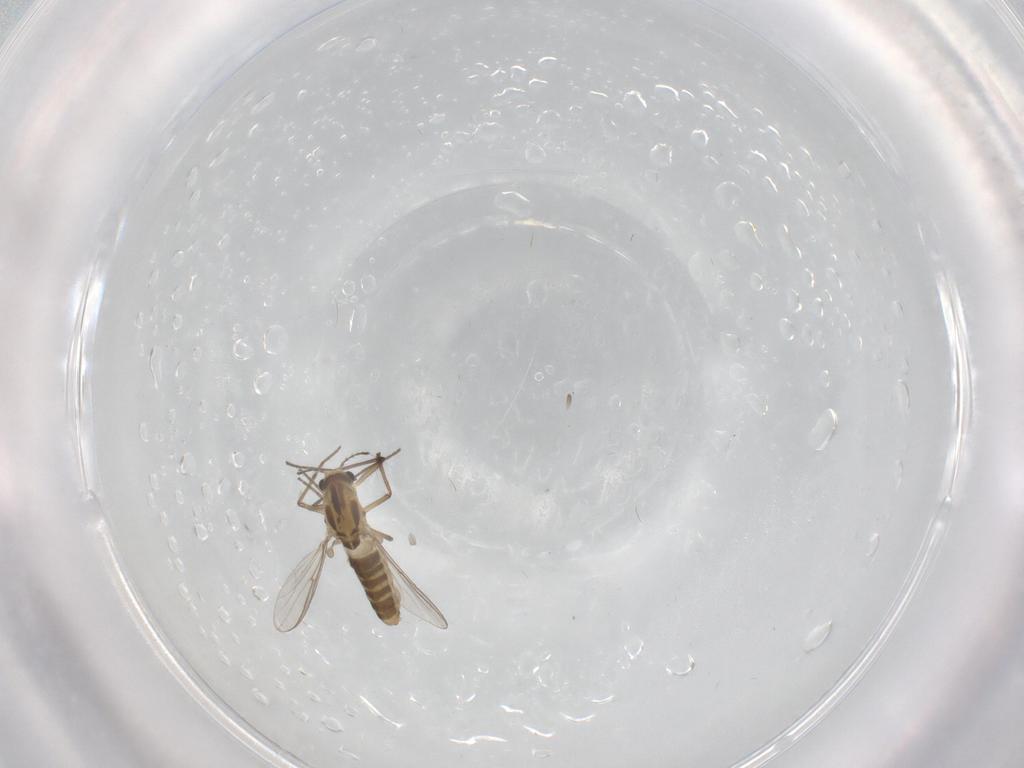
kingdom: Animalia
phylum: Arthropoda
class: Insecta
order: Diptera
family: Chironomidae
